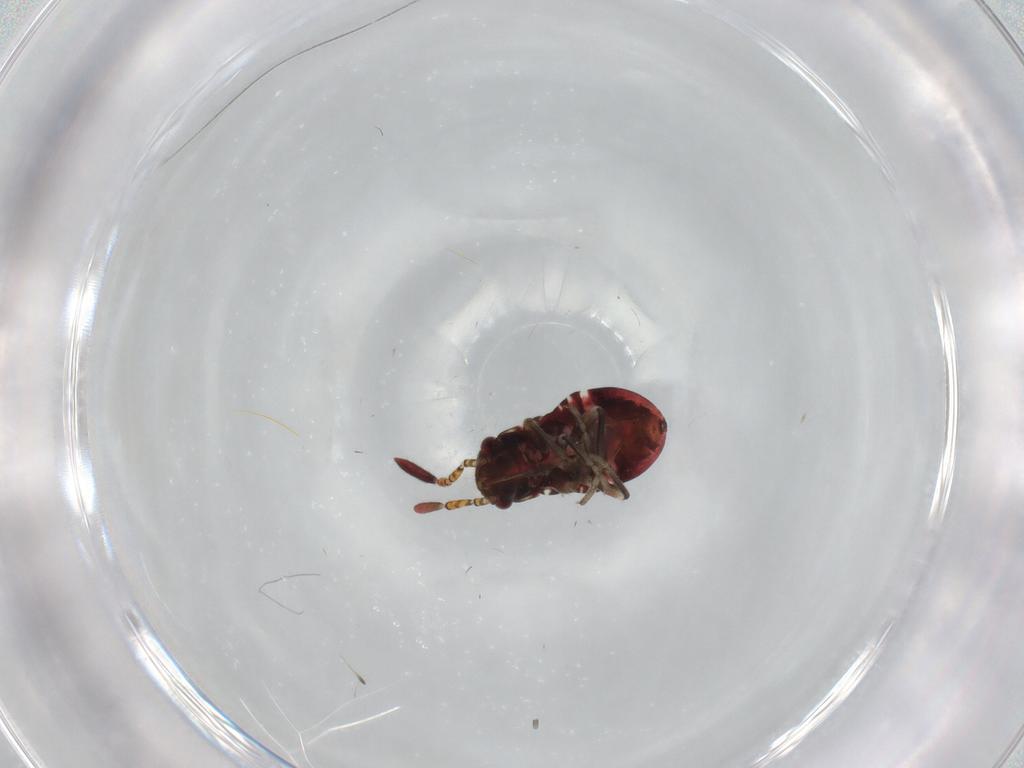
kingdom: Animalia
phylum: Arthropoda
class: Insecta
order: Hemiptera
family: Rhyparochromidae
